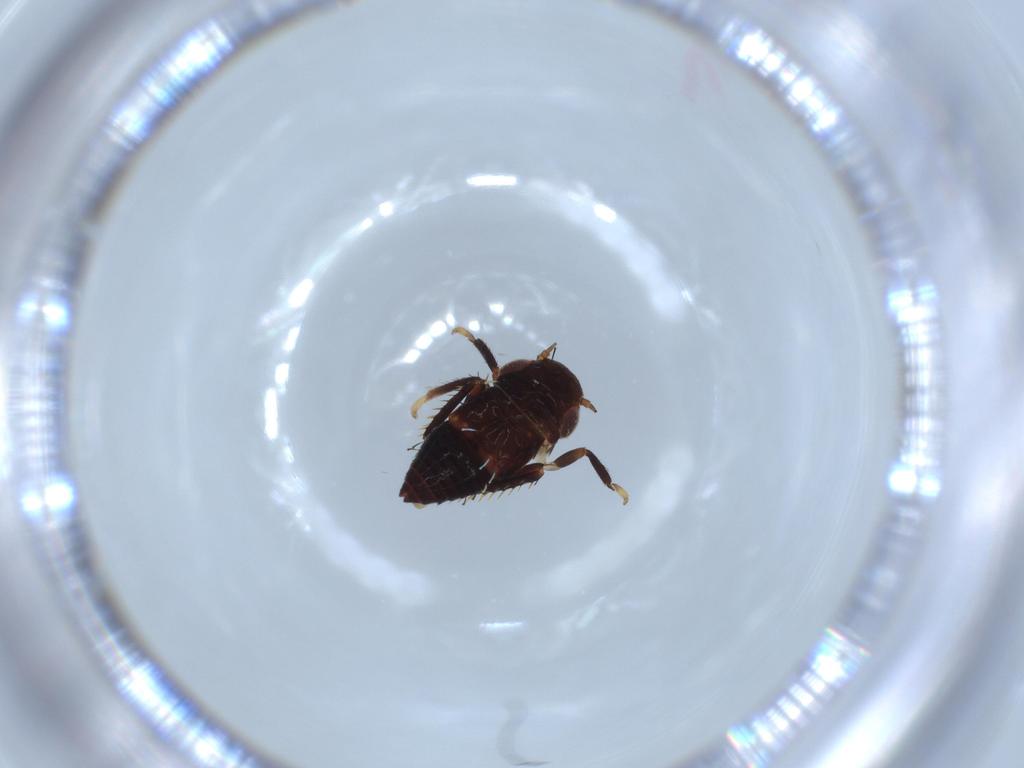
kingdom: Animalia
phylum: Arthropoda
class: Insecta
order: Hemiptera
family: Cicadellidae
